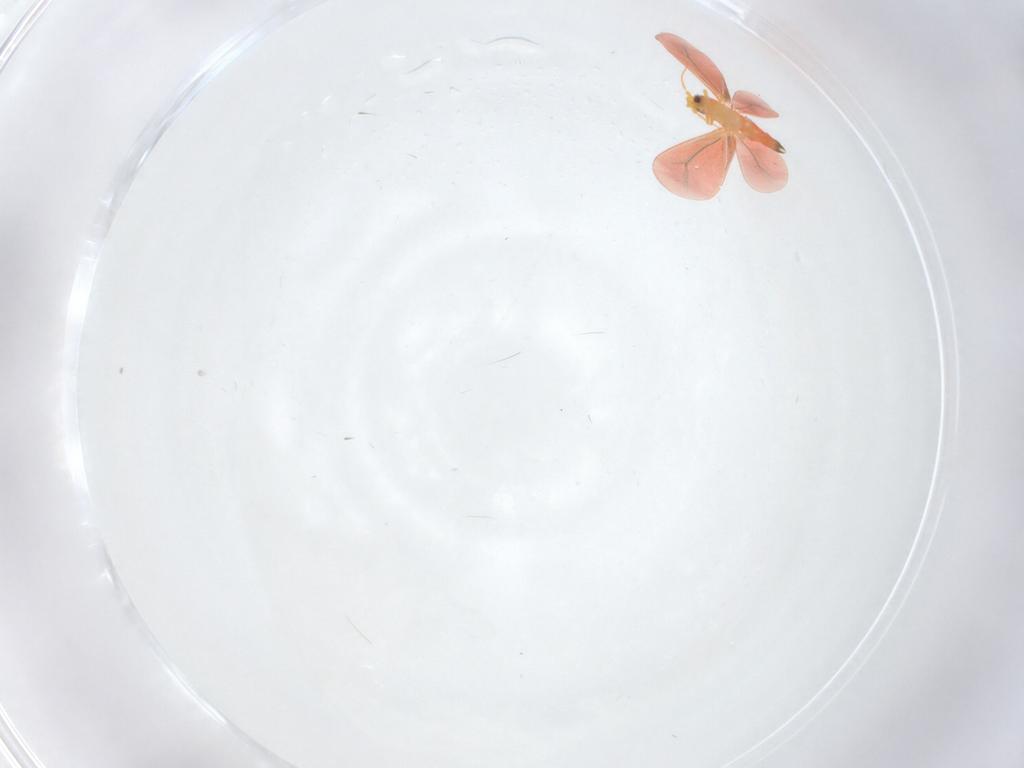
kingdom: Animalia
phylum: Arthropoda
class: Insecta
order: Hemiptera
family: Aleyrodidae
